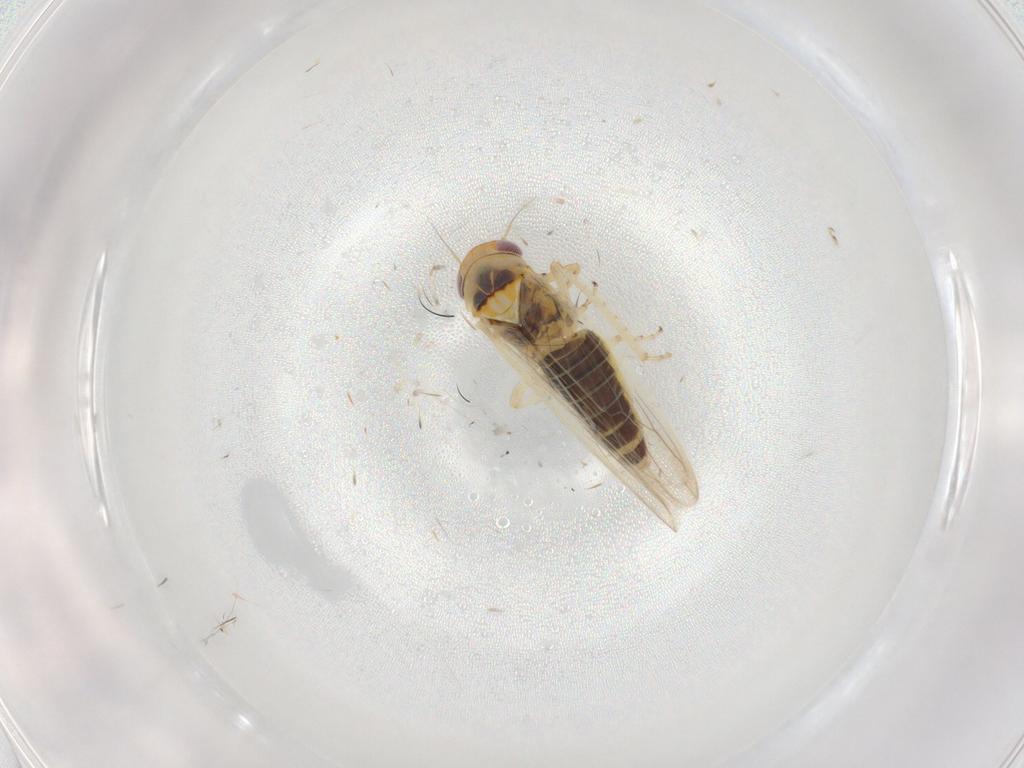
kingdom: Animalia
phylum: Arthropoda
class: Insecta
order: Hemiptera
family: Cicadellidae
